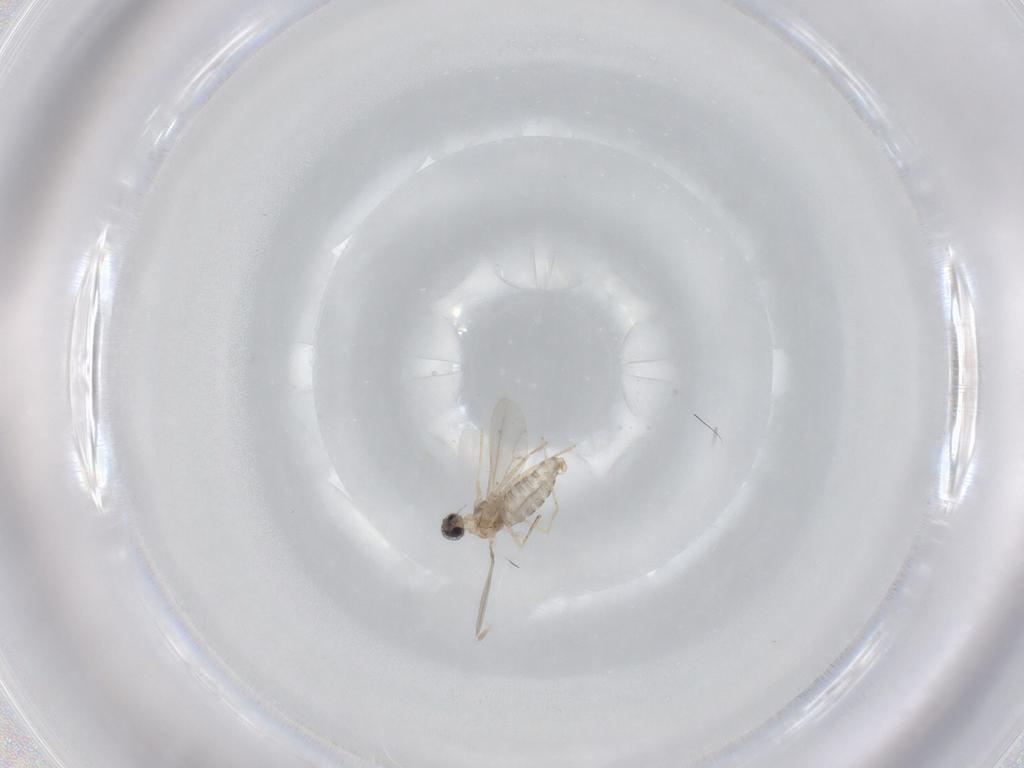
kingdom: Animalia
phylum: Arthropoda
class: Insecta
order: Diptera
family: Cecidomyiidae
